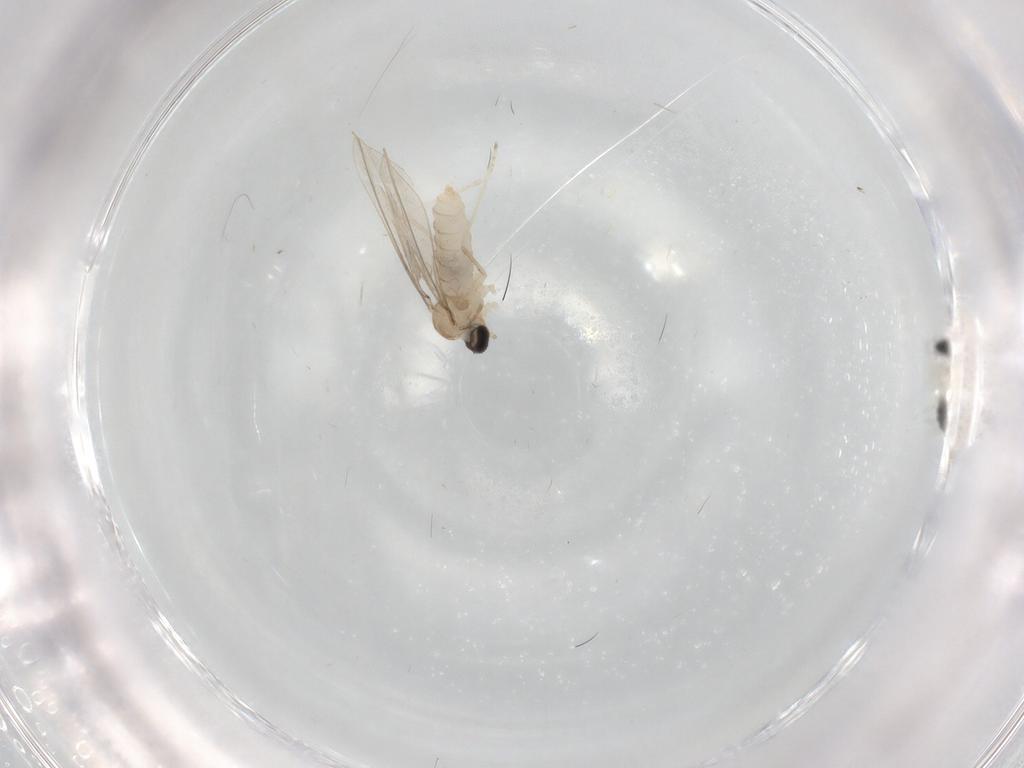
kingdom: Animalia
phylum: Arthropoda
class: Insecta
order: Diptera
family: Cecidomyiidae
